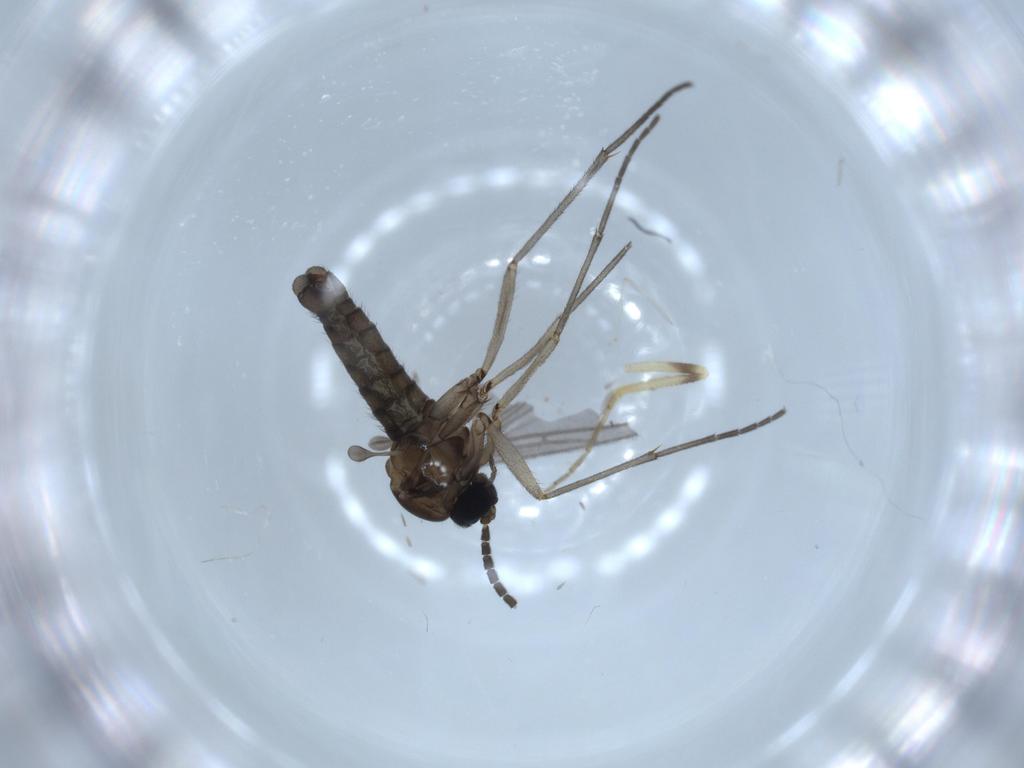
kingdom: Animalia
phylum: Arthropoda
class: Insecta
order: Diptera
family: Sciaridae
